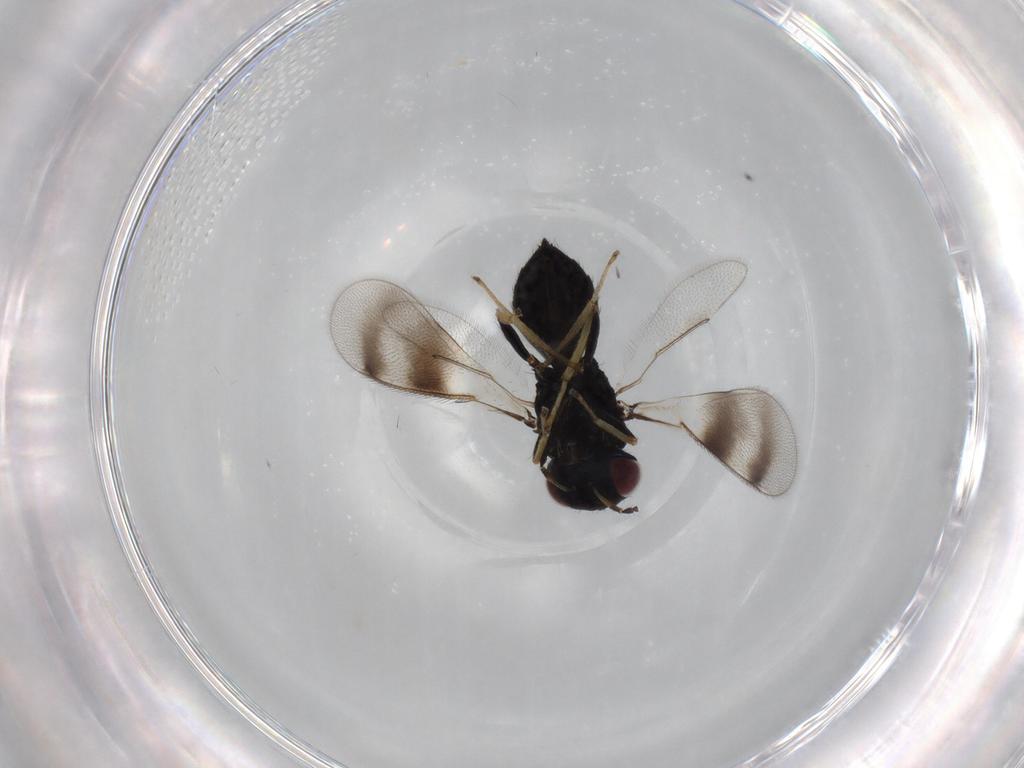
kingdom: Animalia
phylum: Arthropoda
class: Insecta
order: Hymenoptera
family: Eulophidae
